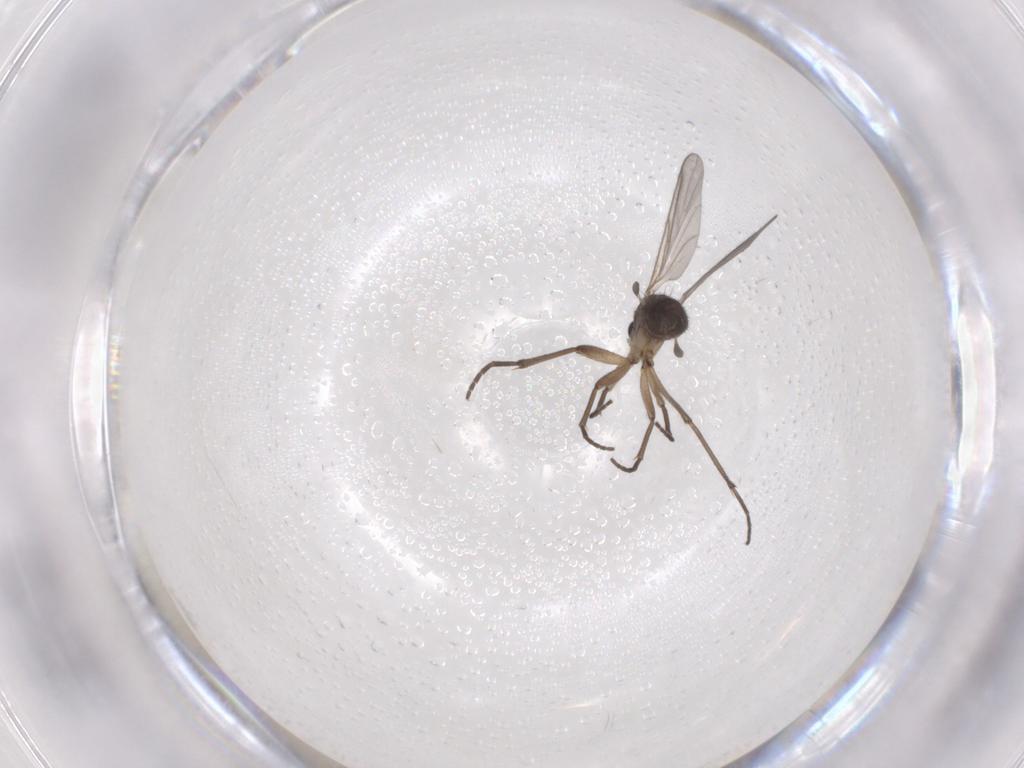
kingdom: Animalia
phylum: Arthropoda
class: Insecta
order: Diptera
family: Sciaridae
